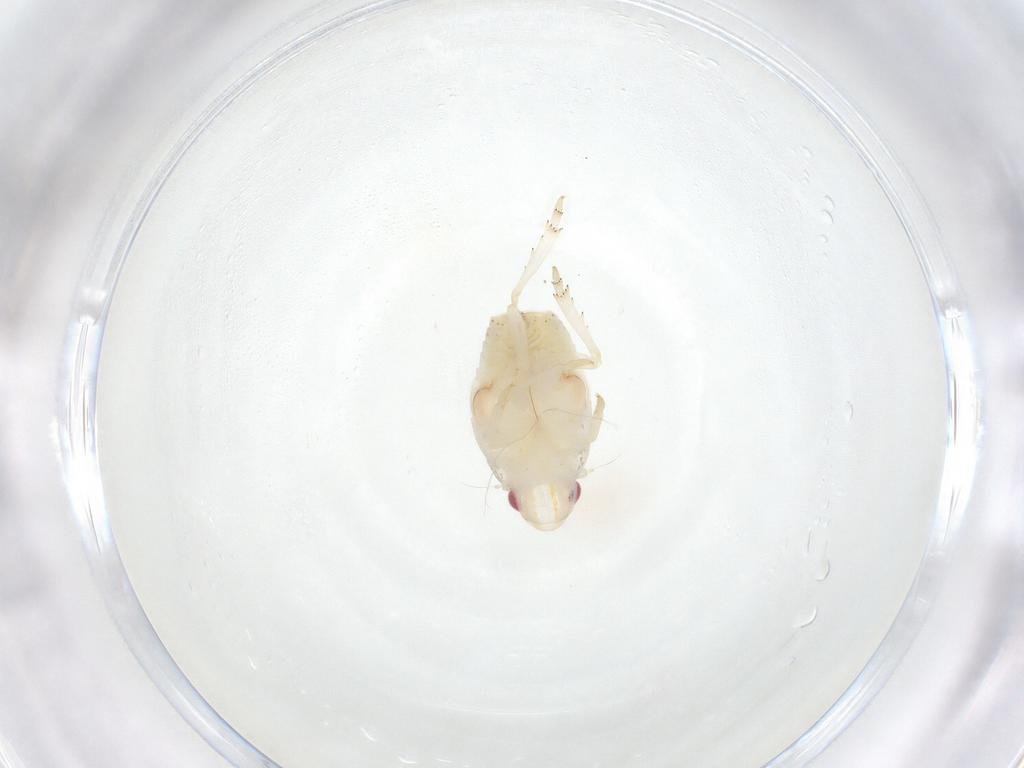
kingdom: Animalia
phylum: Arthropoda
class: Insecta
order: Hemiptera
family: Flatidae
